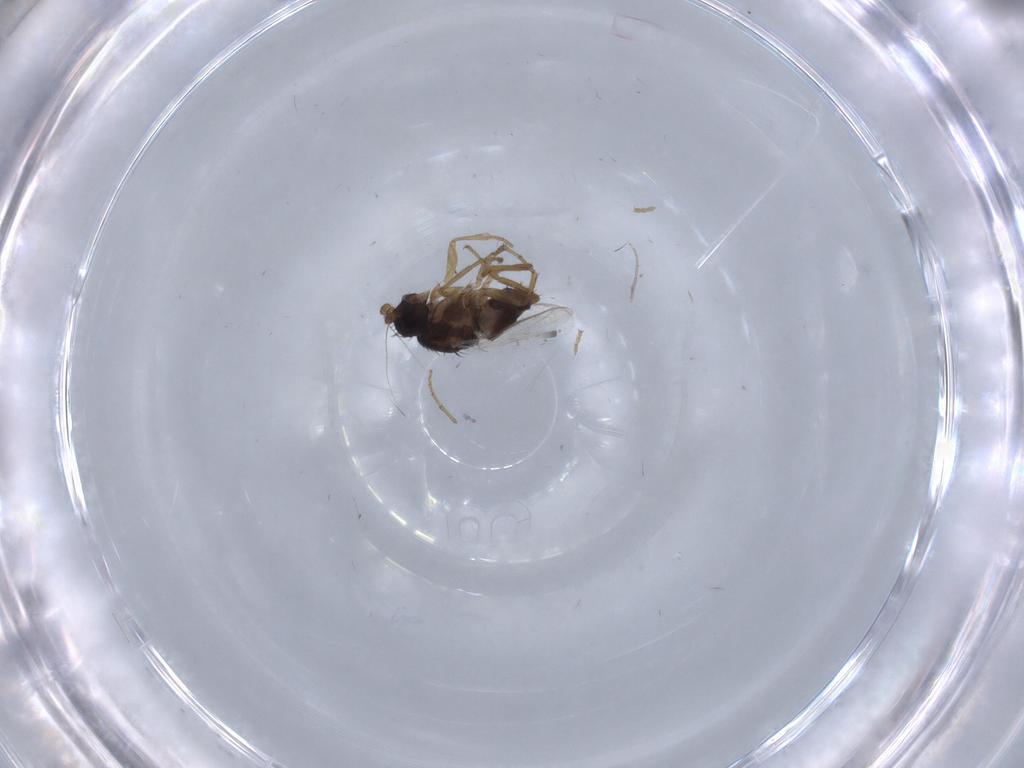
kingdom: Animalia
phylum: Arthropoda
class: Insecta
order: Diptera
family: Sphaeroceridae
